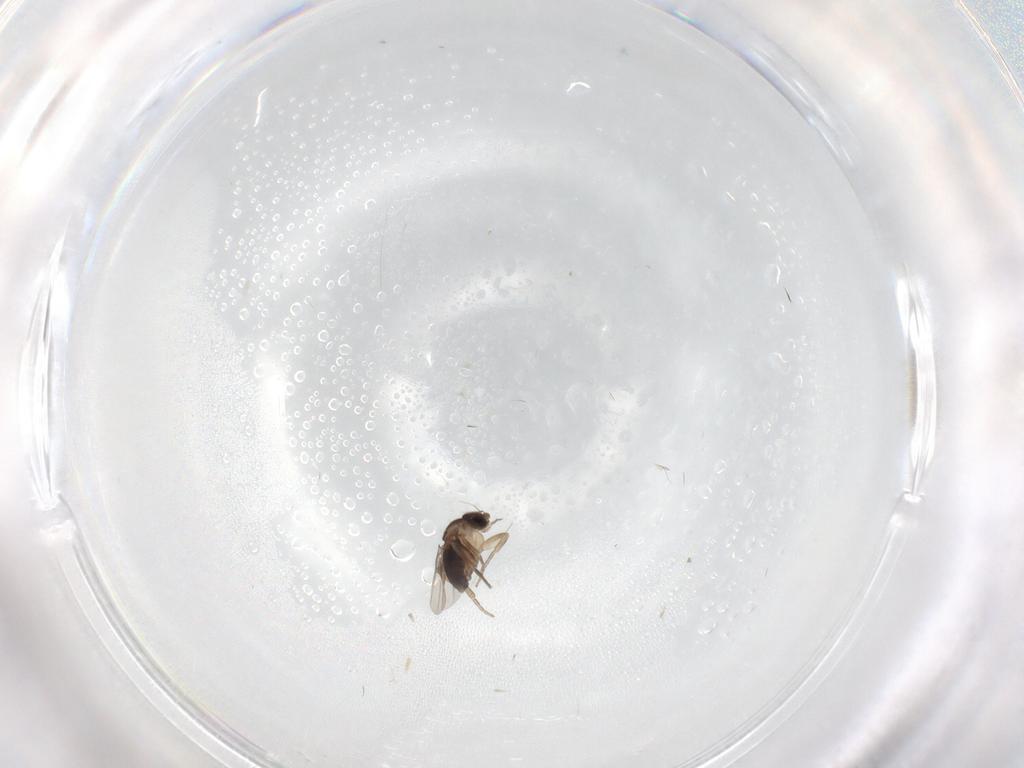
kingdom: Animalia
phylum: Arthropoda
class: Insecta
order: Diptera
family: Phoridae
